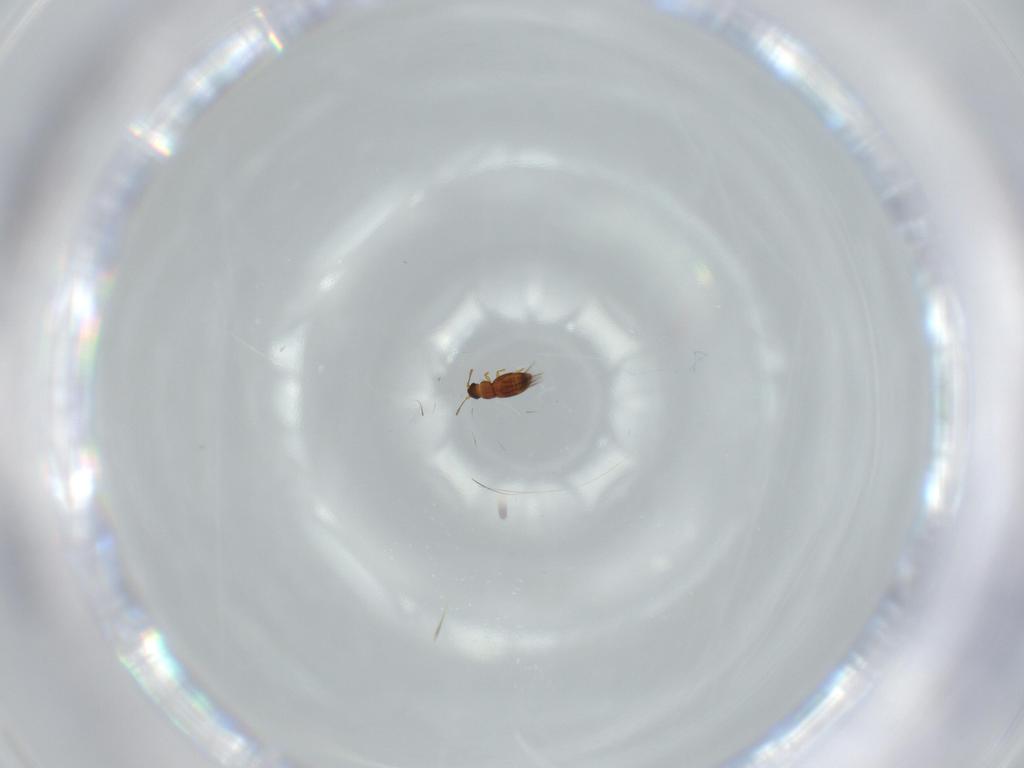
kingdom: Animalia
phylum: Arthropoda
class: Insecta
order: Coleoptera
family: Ptiliidae
